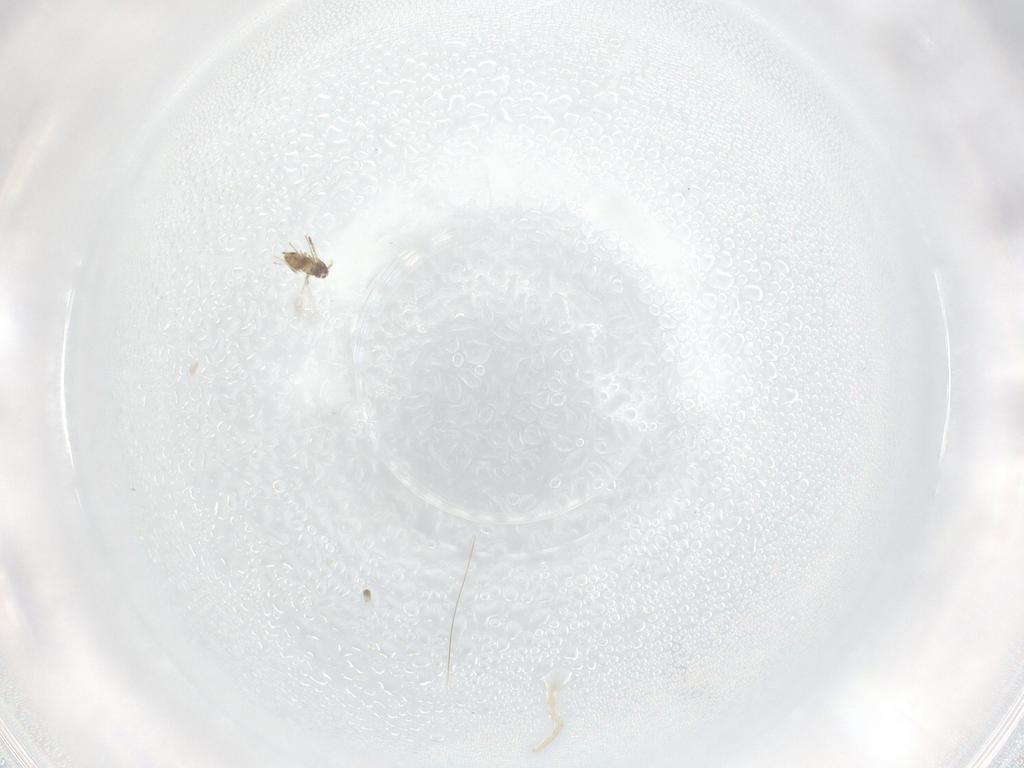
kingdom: Animalia
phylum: Arthropoda
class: Insecta
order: Hymenoptera
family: Mymaridae
